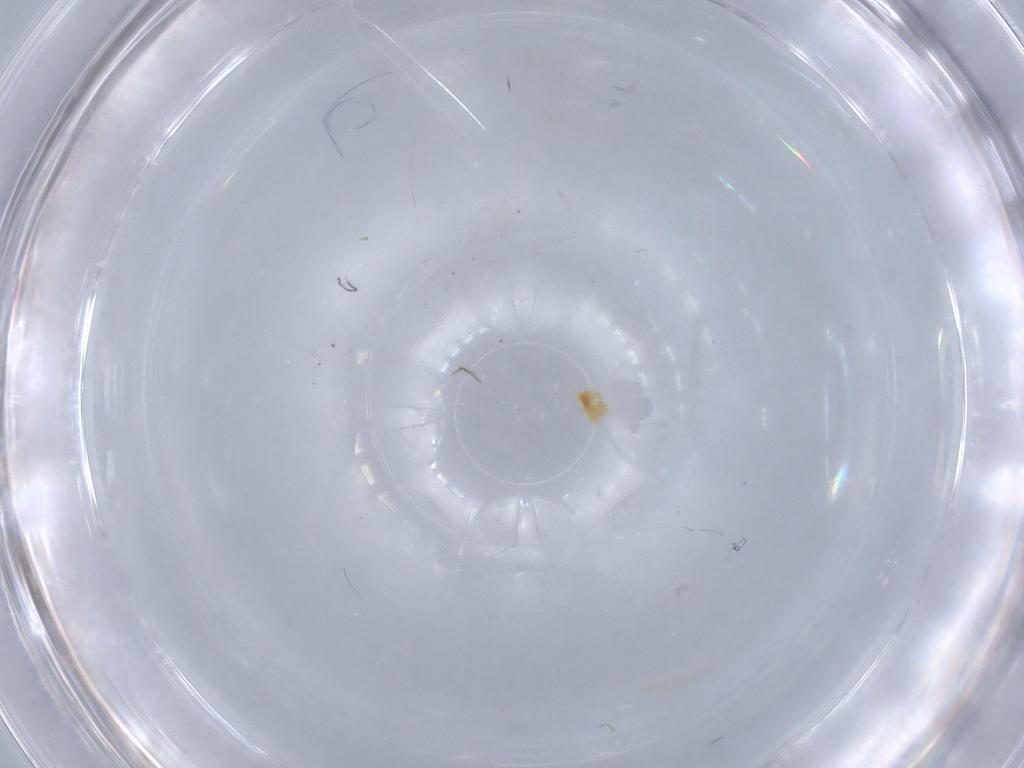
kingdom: Animalia
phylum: Arthropoda
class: Insecta
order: Diptera
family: Cecidomyiidae
